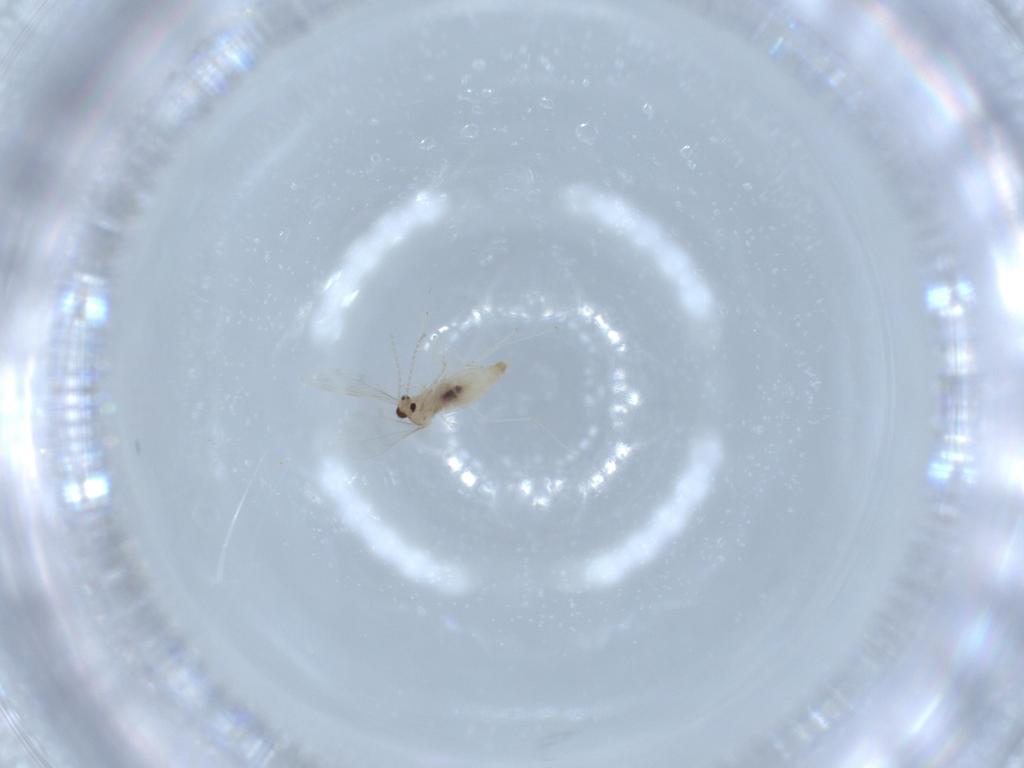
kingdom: Animalia
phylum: Arthropoda
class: Insecta
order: Diptera
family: Cecidomyiidae
